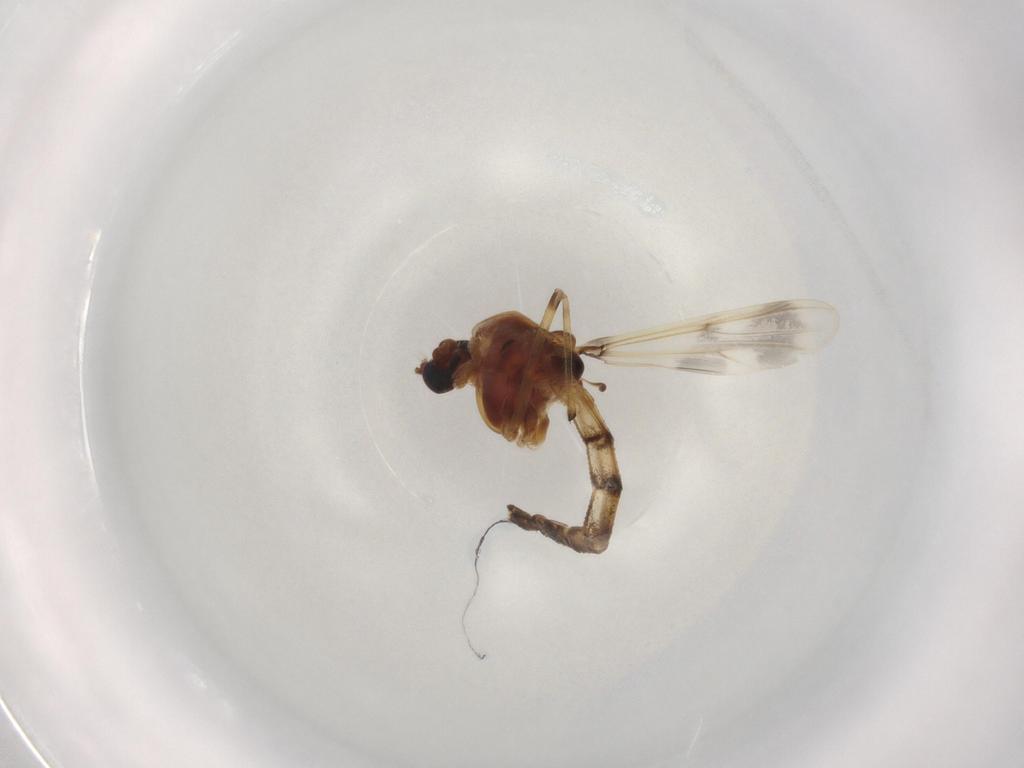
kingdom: Animalia
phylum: Arthropoda
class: Insecta
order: Diptera
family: Chironomidae
